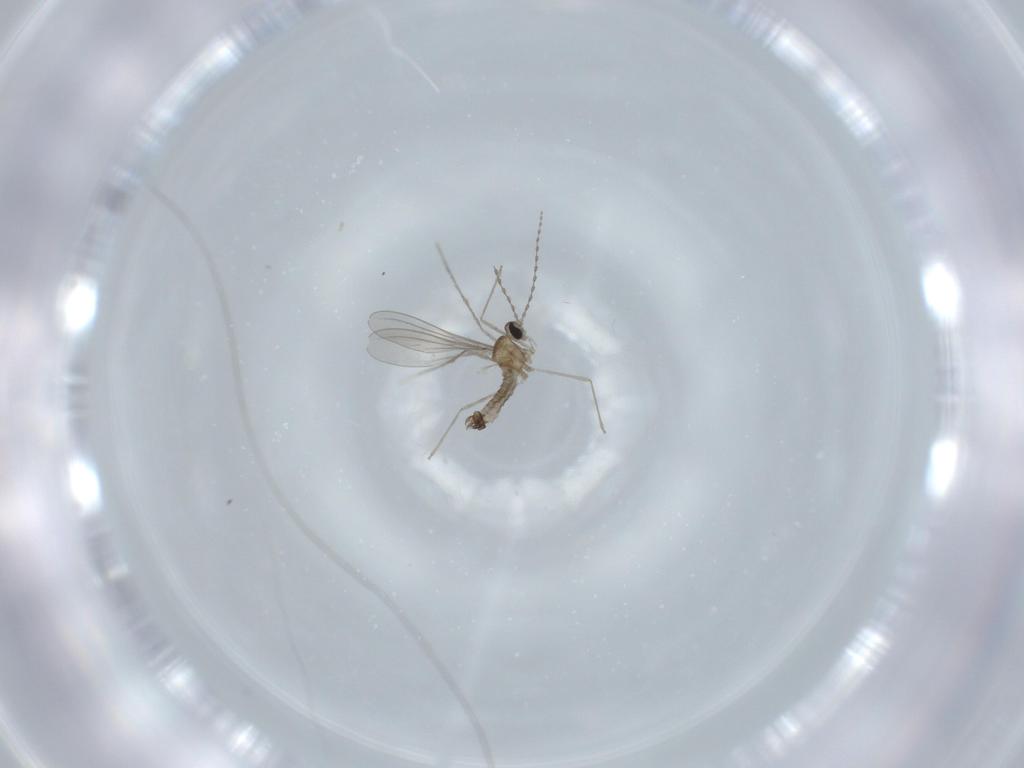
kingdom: Animalia
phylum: Arthropoda
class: Insecta
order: Diptera
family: Cecidomyiidae
